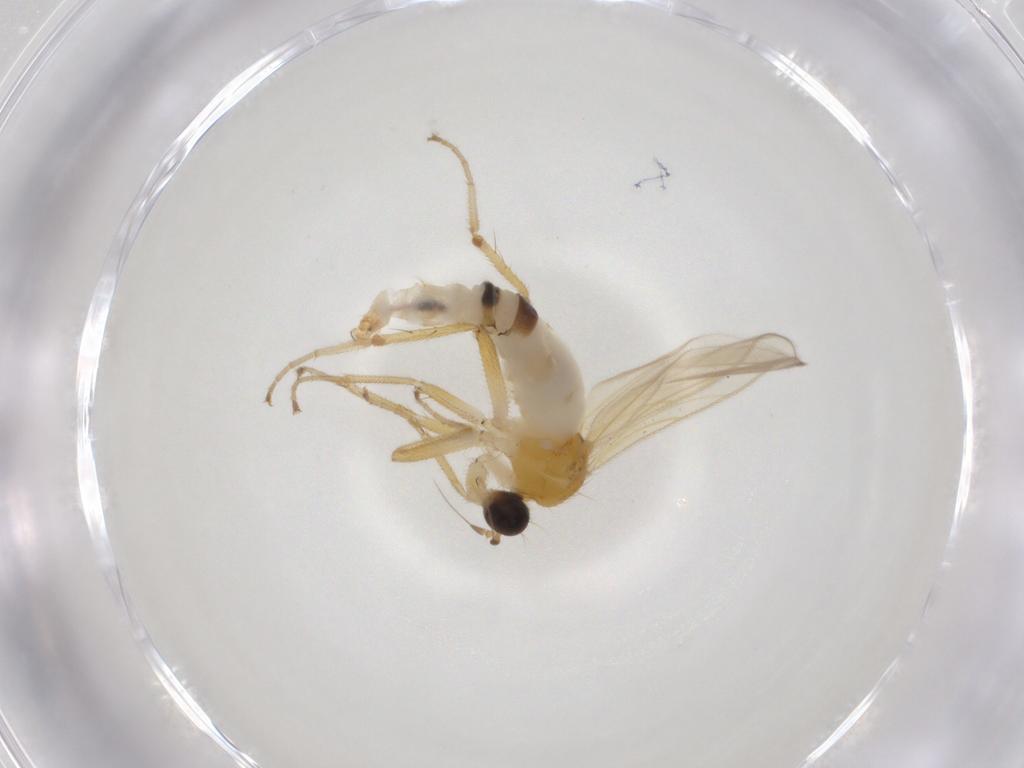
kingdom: Animalia
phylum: Arthropoda
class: Insecta
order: Diptera
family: Hybotidae
